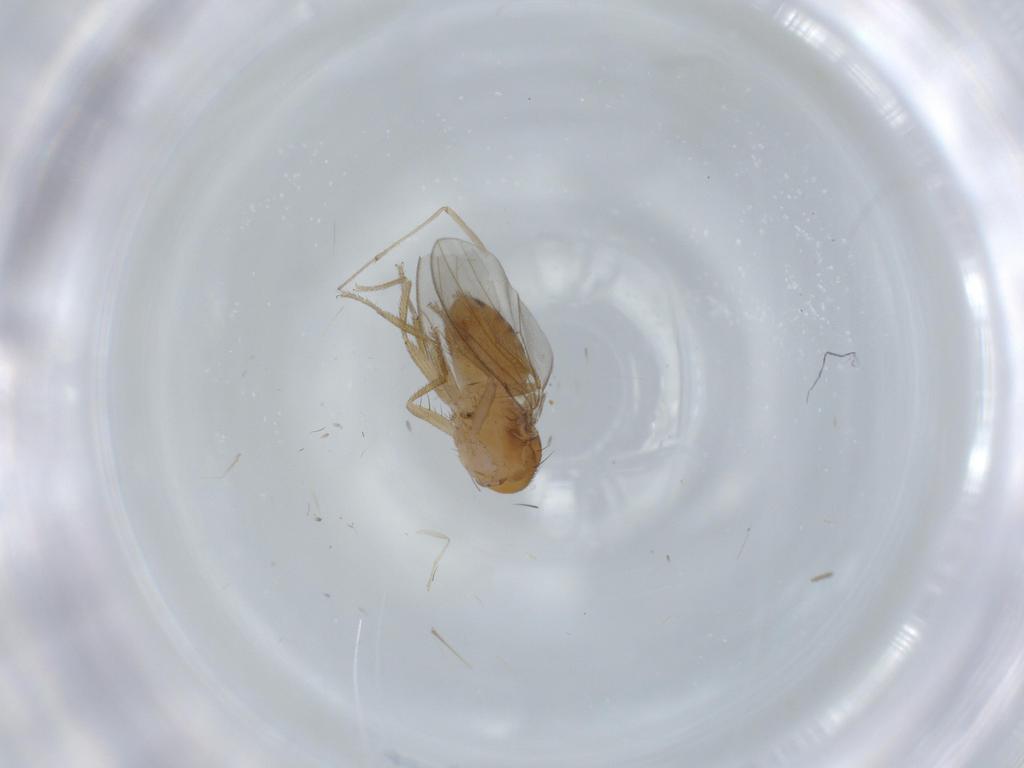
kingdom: Animalia
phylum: Arthropoda
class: Insecta
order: Diptera
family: Drosophilidae
